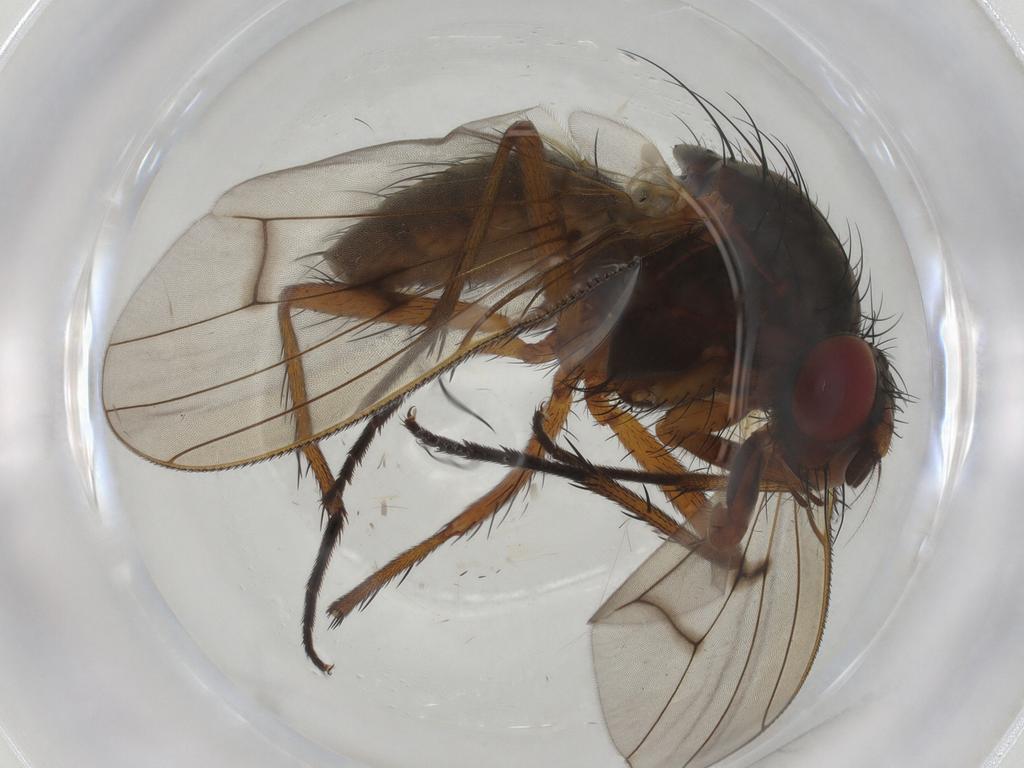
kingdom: Animalia
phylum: Arthropoda
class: Insecta
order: Diptera
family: Anthomyiidae
